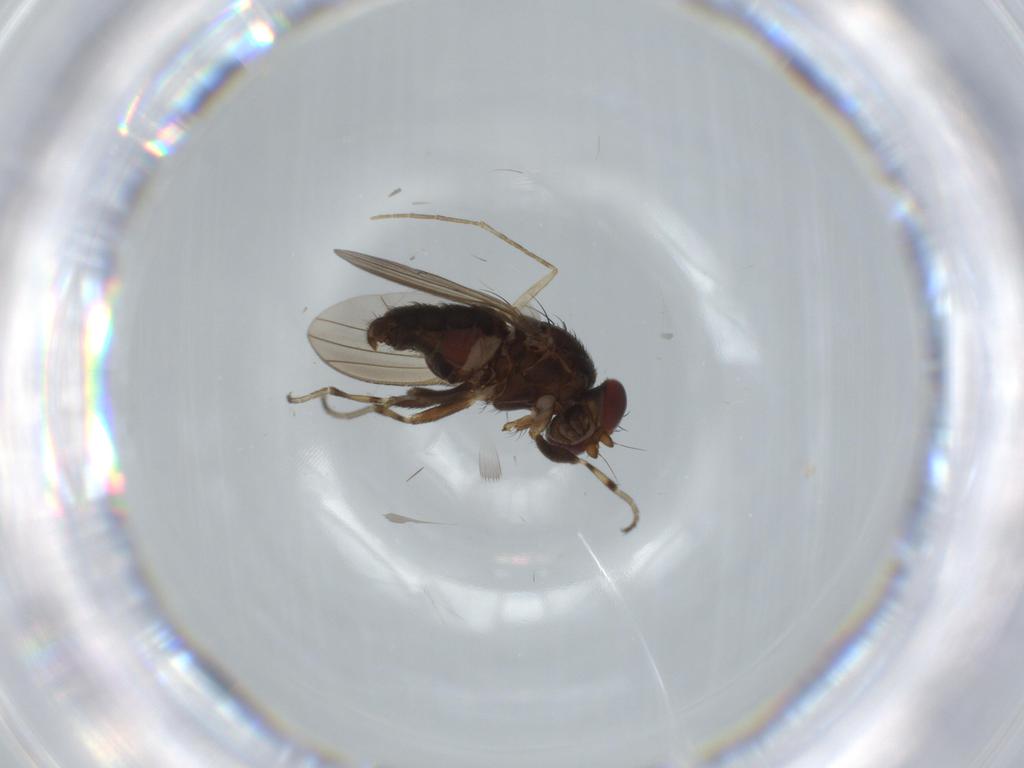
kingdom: Animalia
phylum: Arthropoda
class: Insecta
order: Diptera
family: Heleomyzidae
